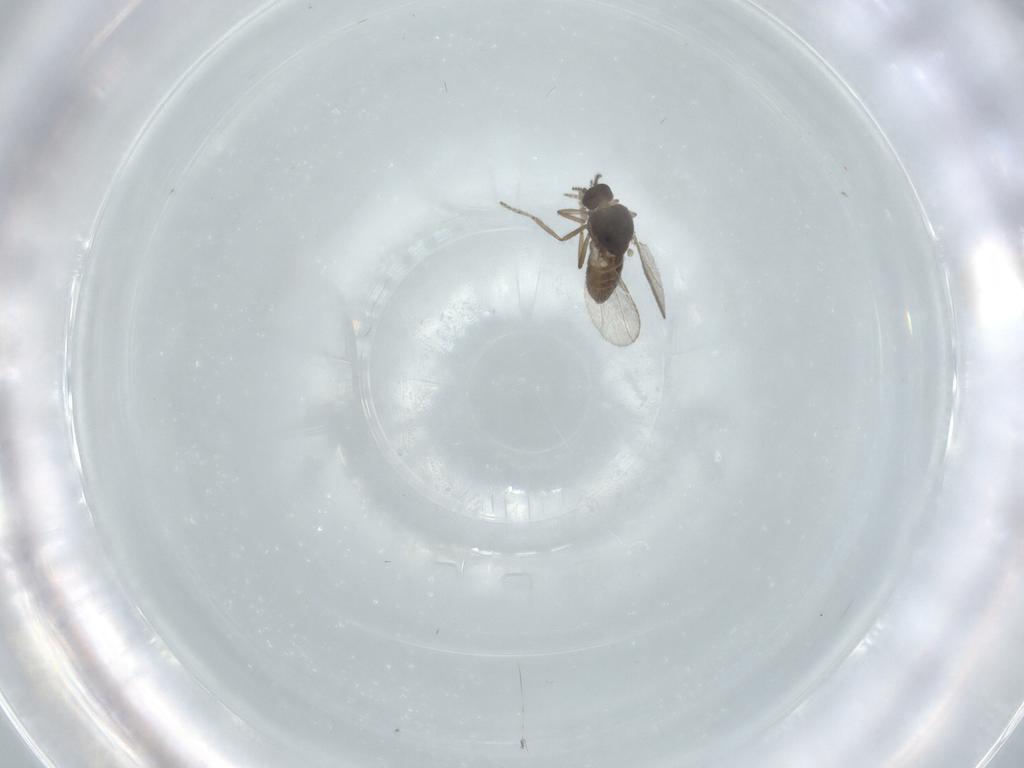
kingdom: Animalia
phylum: Arthropoda
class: Insecta
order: Diptera
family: Ceratopogonidae
